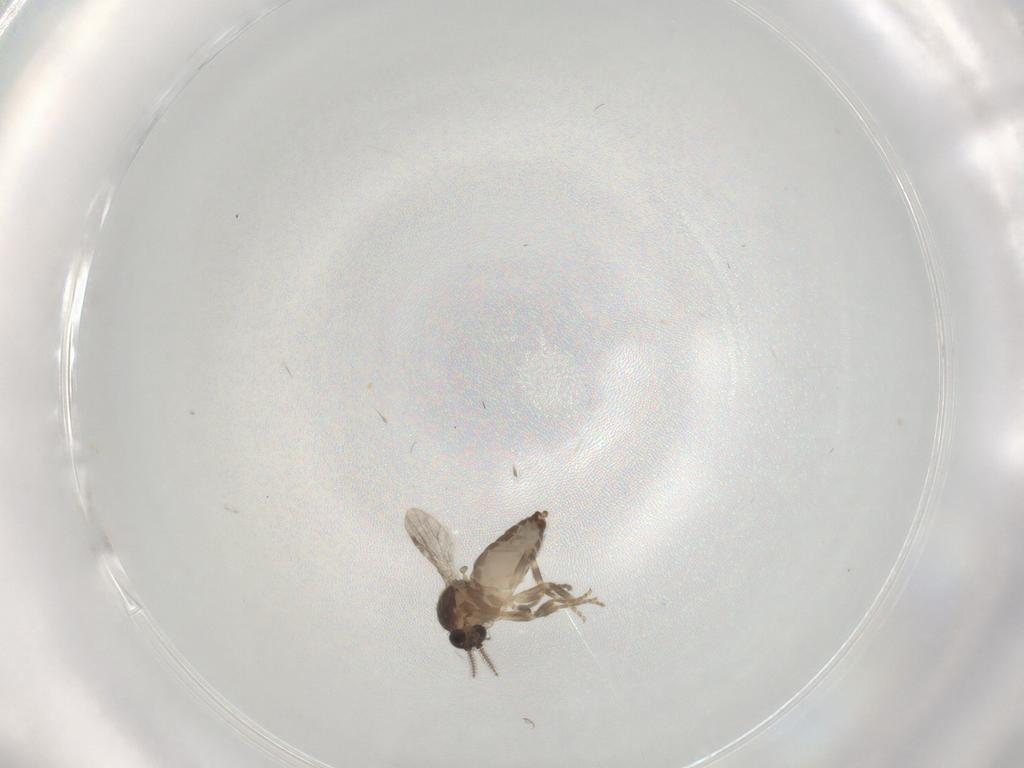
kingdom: Animalia
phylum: Arthropoda
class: Insecta
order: Diptera
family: Ceratopogonidae
